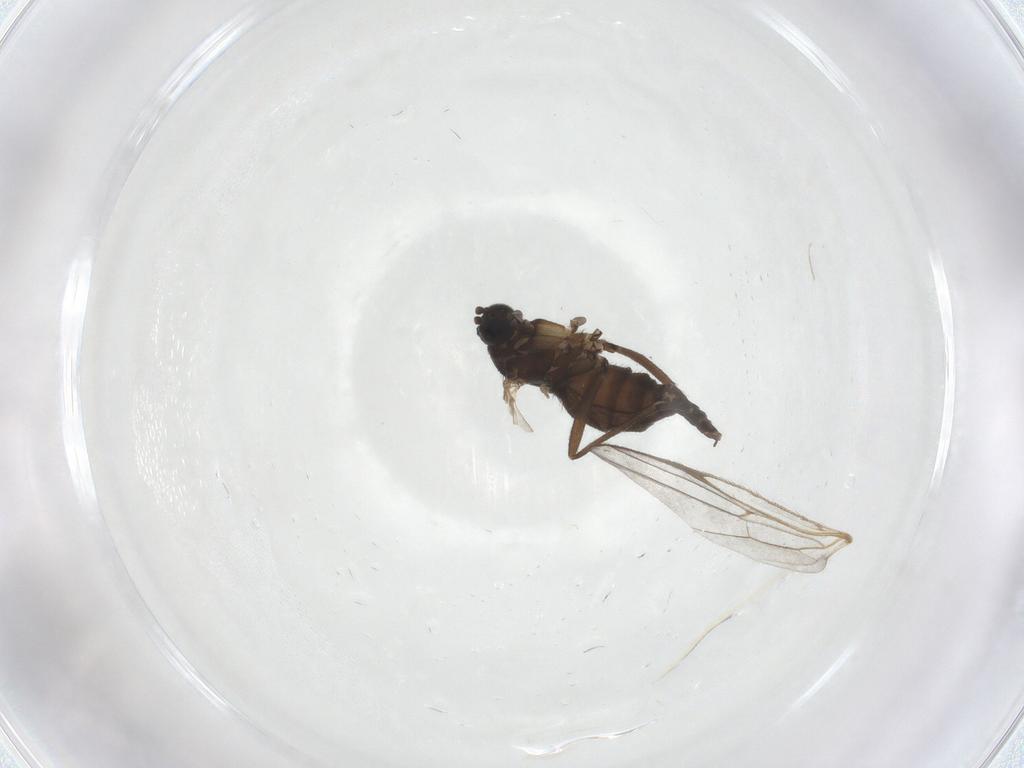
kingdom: Animalia
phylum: Arthropoda
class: Insecta
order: Diptera
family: Sciaridae
